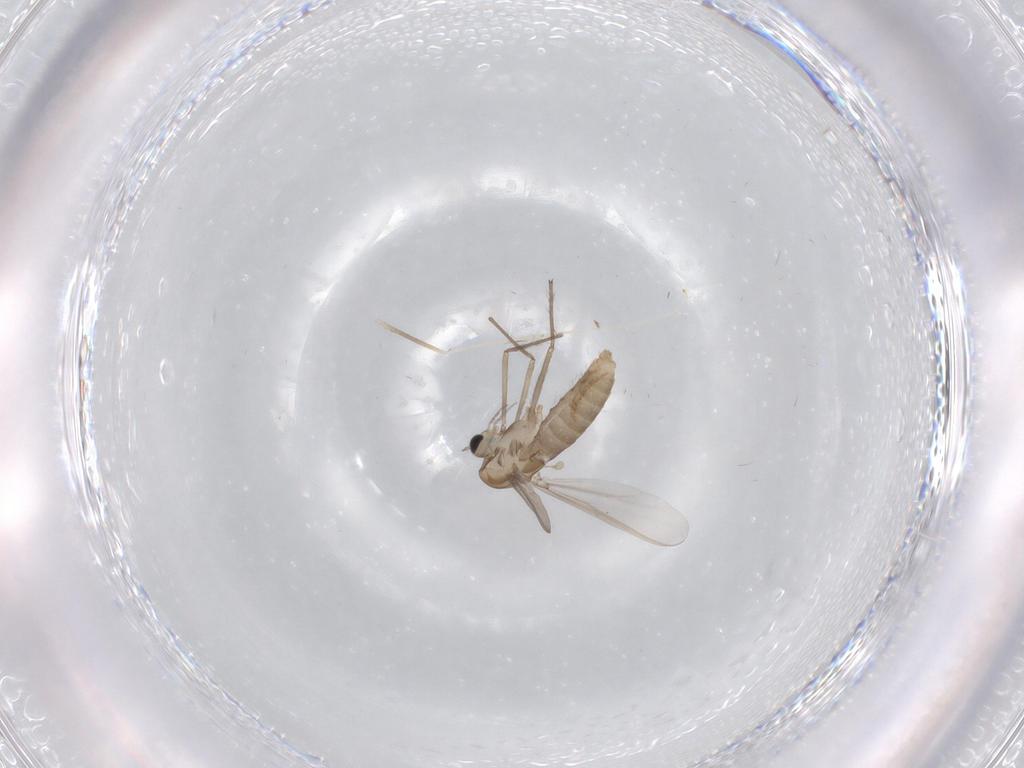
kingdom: Animalia
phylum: Arthropoda
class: Insecta
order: Diptera
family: Chironomidae
